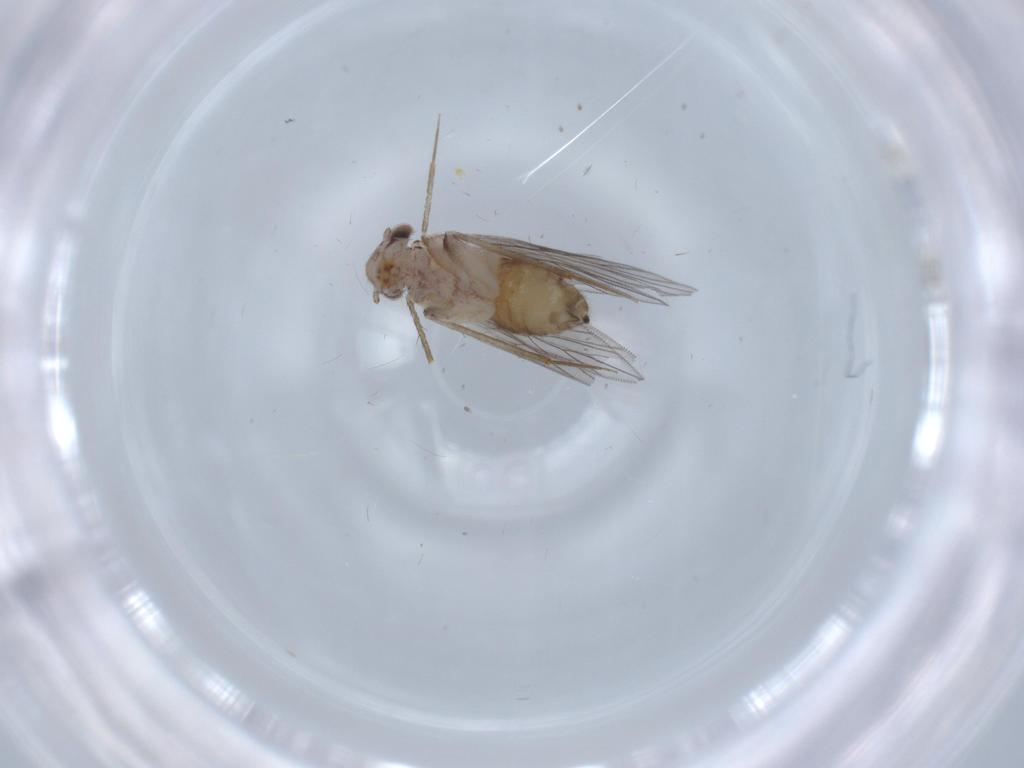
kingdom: Animalia
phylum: Arthropoda
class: Insecta
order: Psocodea
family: Lepidopsocidae
